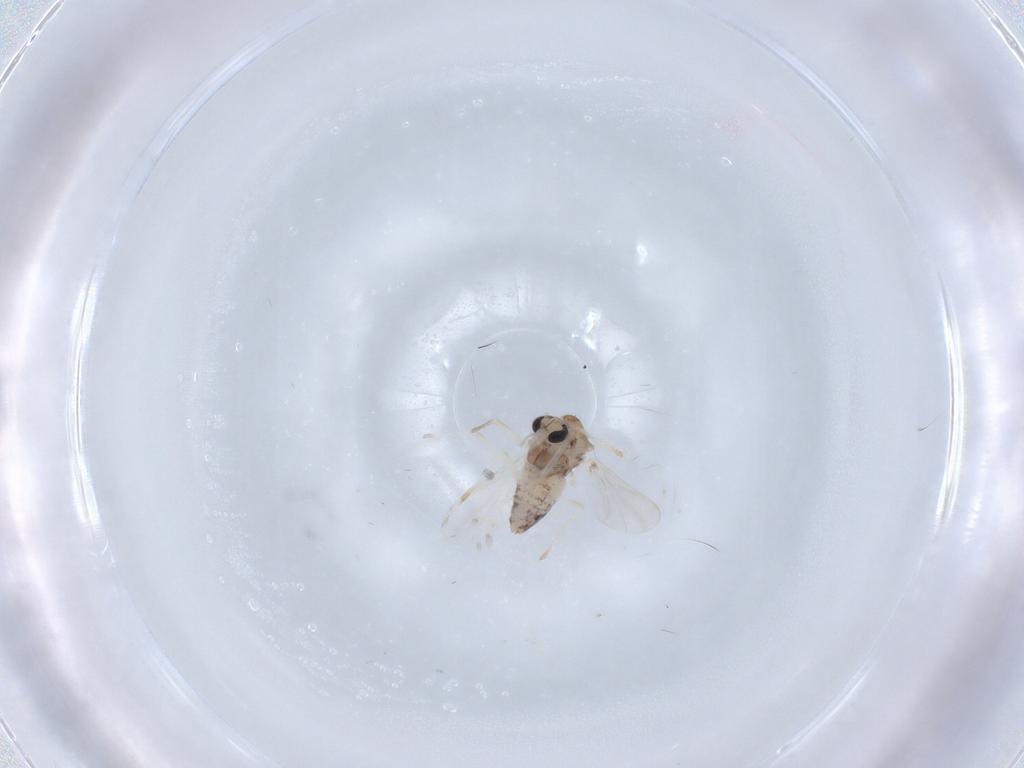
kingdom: Animalia
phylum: Arthropoda
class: Insecta
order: Diptera
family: Chironomidae
